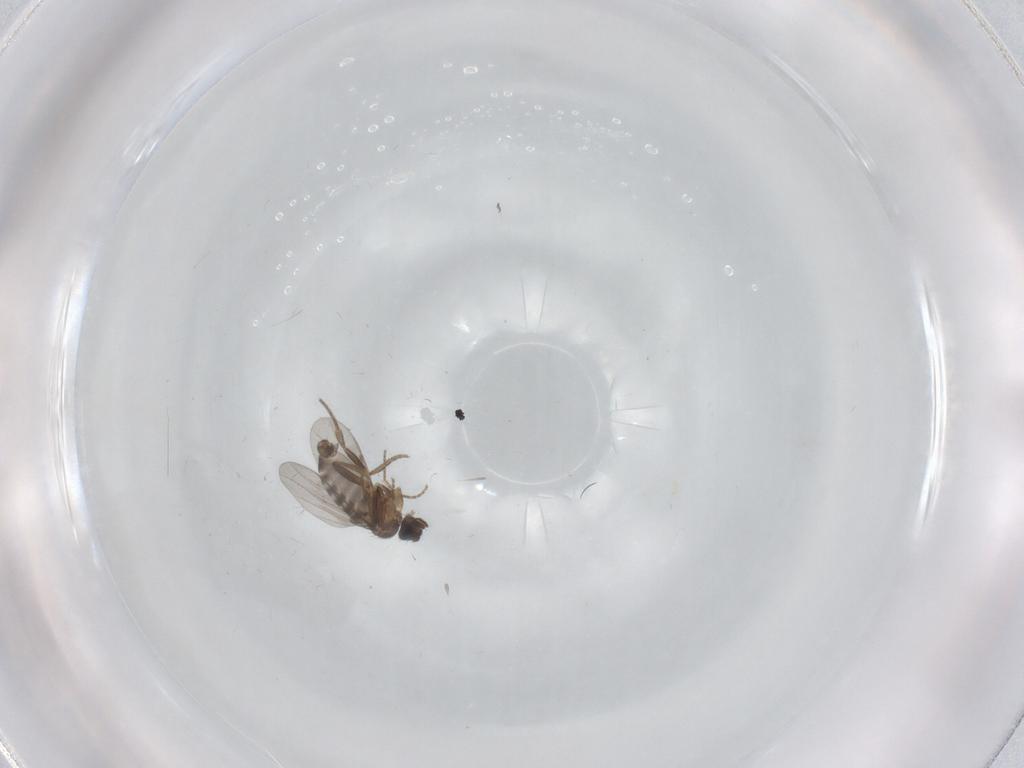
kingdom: Animalia
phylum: Arthropoda
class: Insecta
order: Diptera
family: Cecidomyiidae
